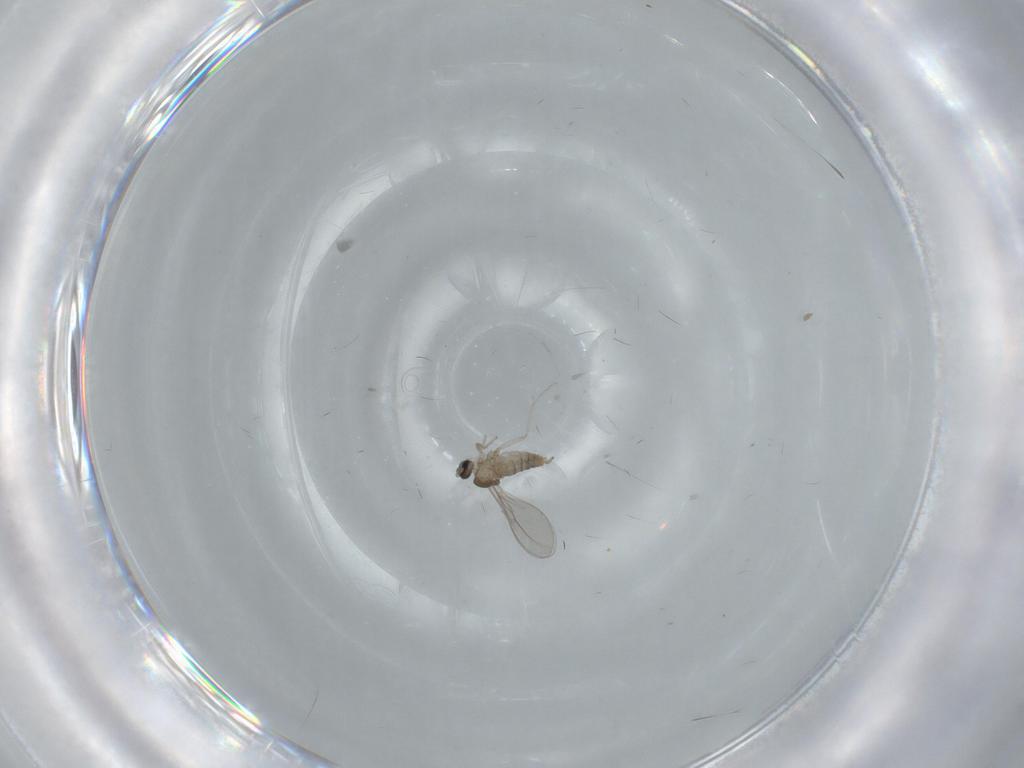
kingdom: Animalia
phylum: Arthropoda
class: Insecta
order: Diptera
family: Cecidomyiidae
